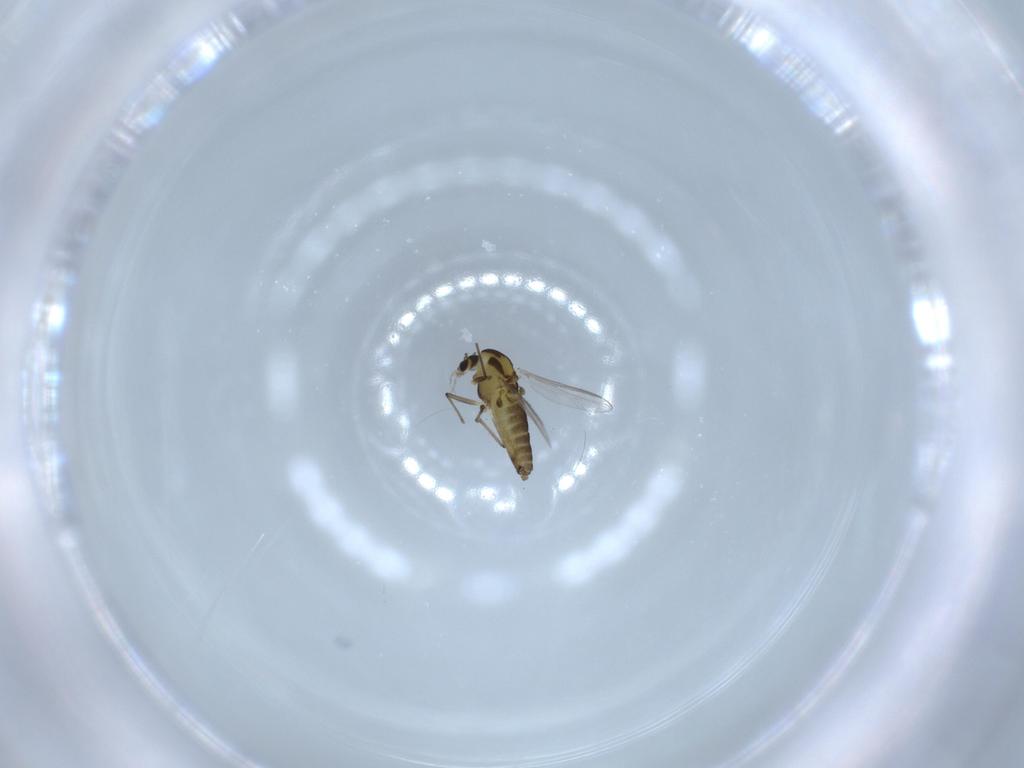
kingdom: Animalia
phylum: Arthropoda
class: Insecta
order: Diptera
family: Chironomidae
